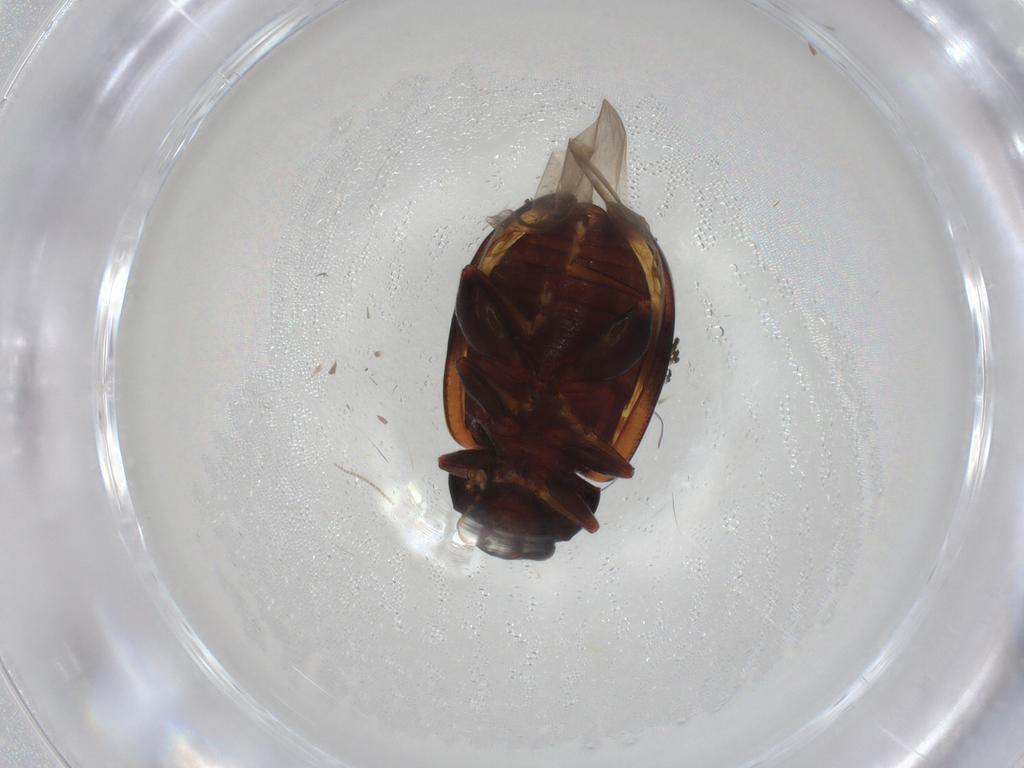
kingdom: Animalia
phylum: Arthropoda
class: Insecta
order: Coleoptera
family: Chrysomelidae
